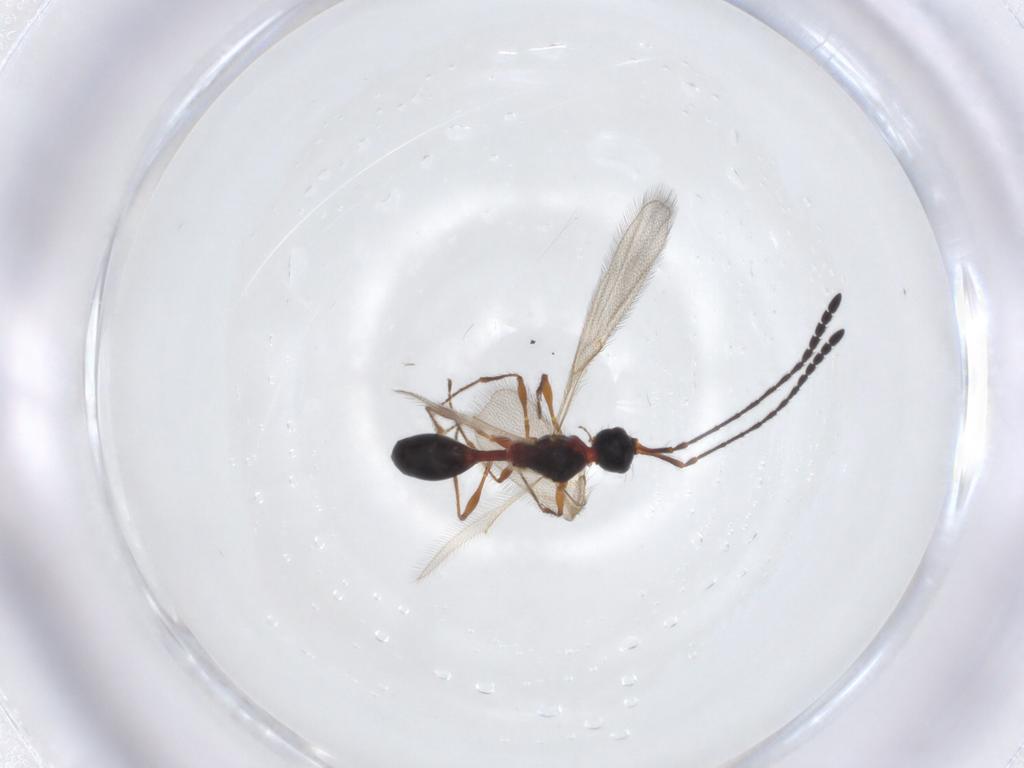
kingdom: Animalia
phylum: Arthropoda
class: Insecta
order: Hymenoptera
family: Diapriidae
